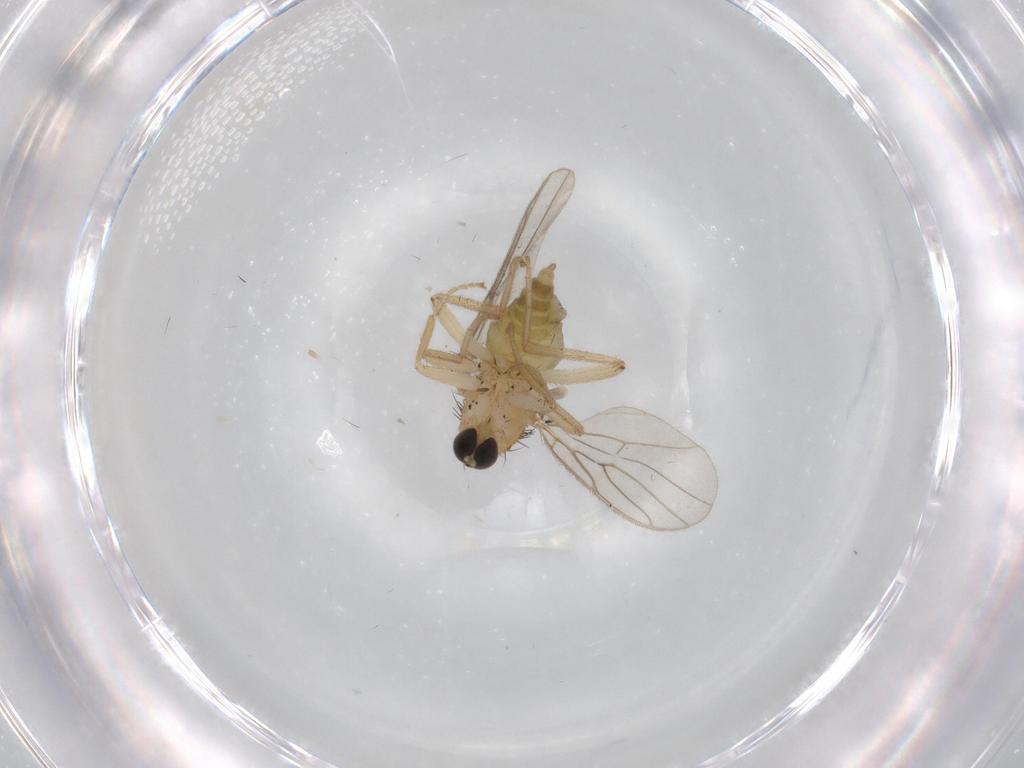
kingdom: Animalia
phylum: Arthropoda
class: Insecta
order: Diptera
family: Hybotidae
